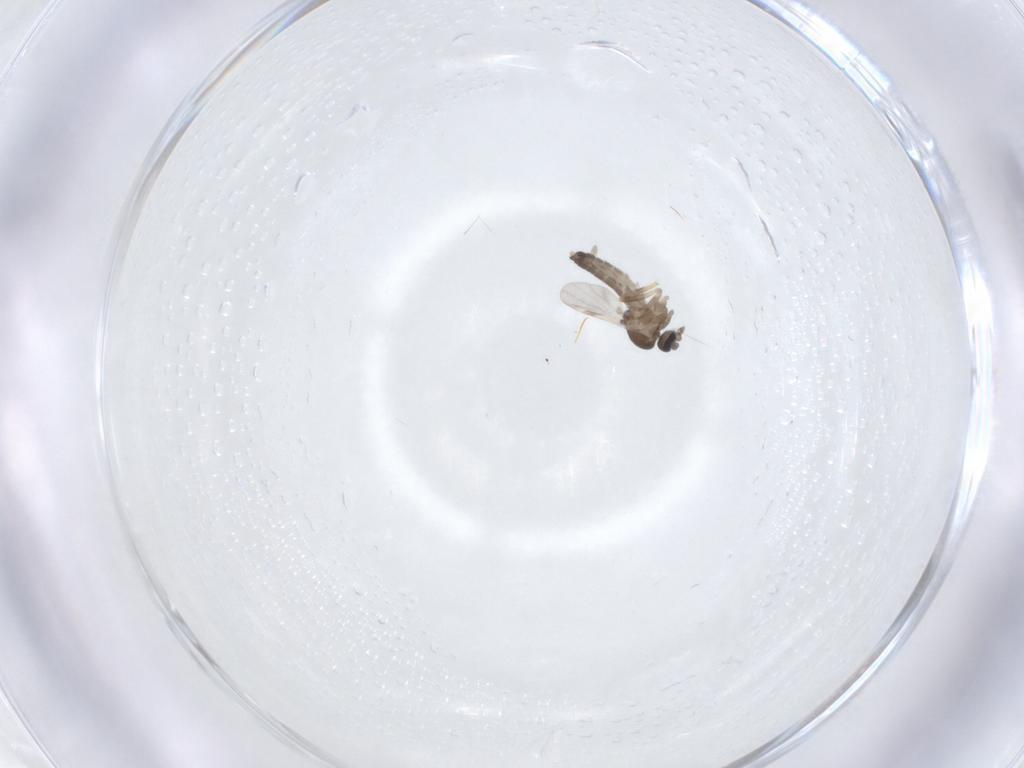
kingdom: Animalia
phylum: Arthropoda
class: Insecta
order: Diptera
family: Ceratopogonidae
